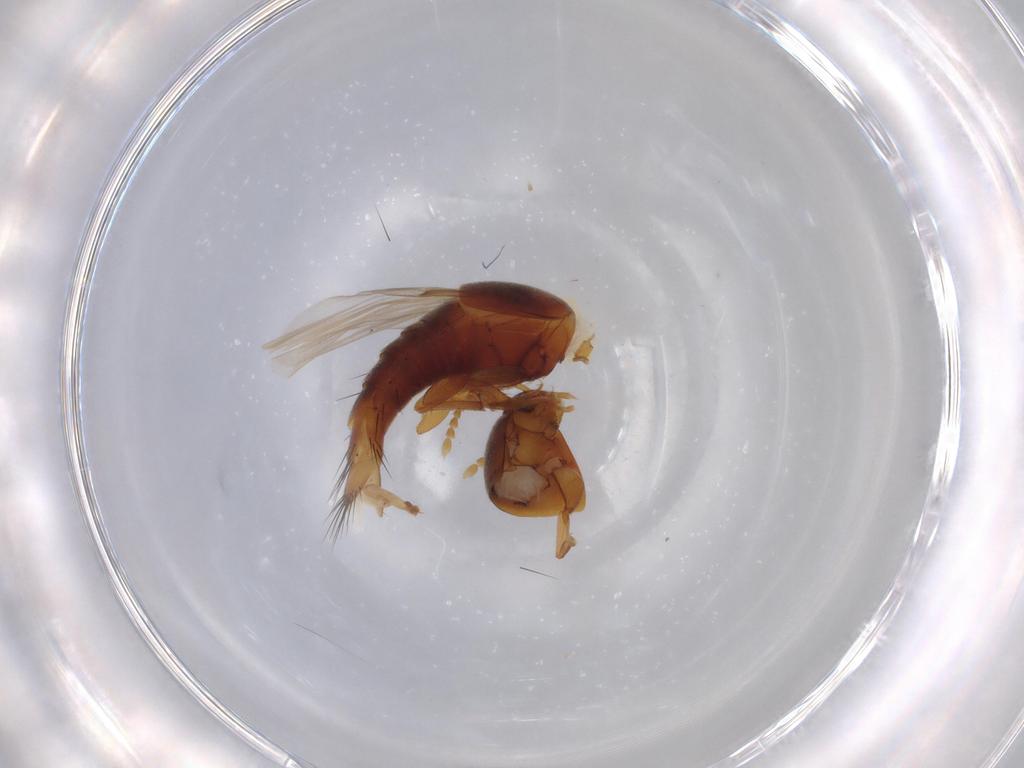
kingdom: Animalia
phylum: Arthropoda
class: Insecta
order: Coleoptera
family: Staphylinidae
